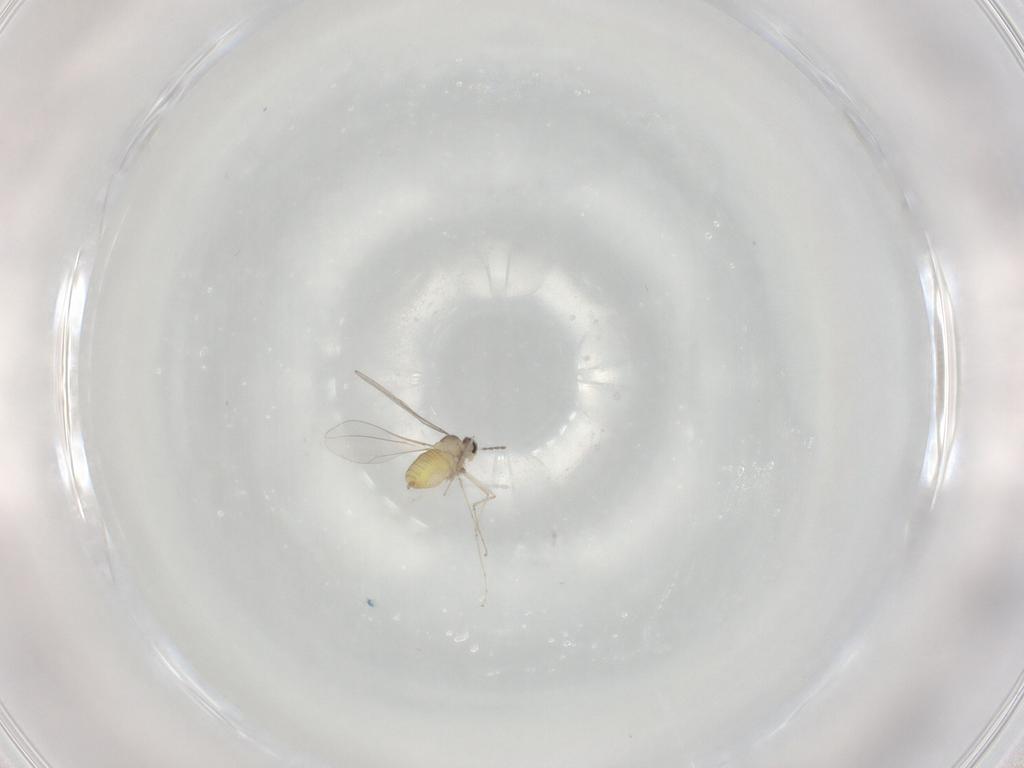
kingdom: Animalia
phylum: Arthropoda
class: Insecta
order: Diptera
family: Cecidomyiidae
